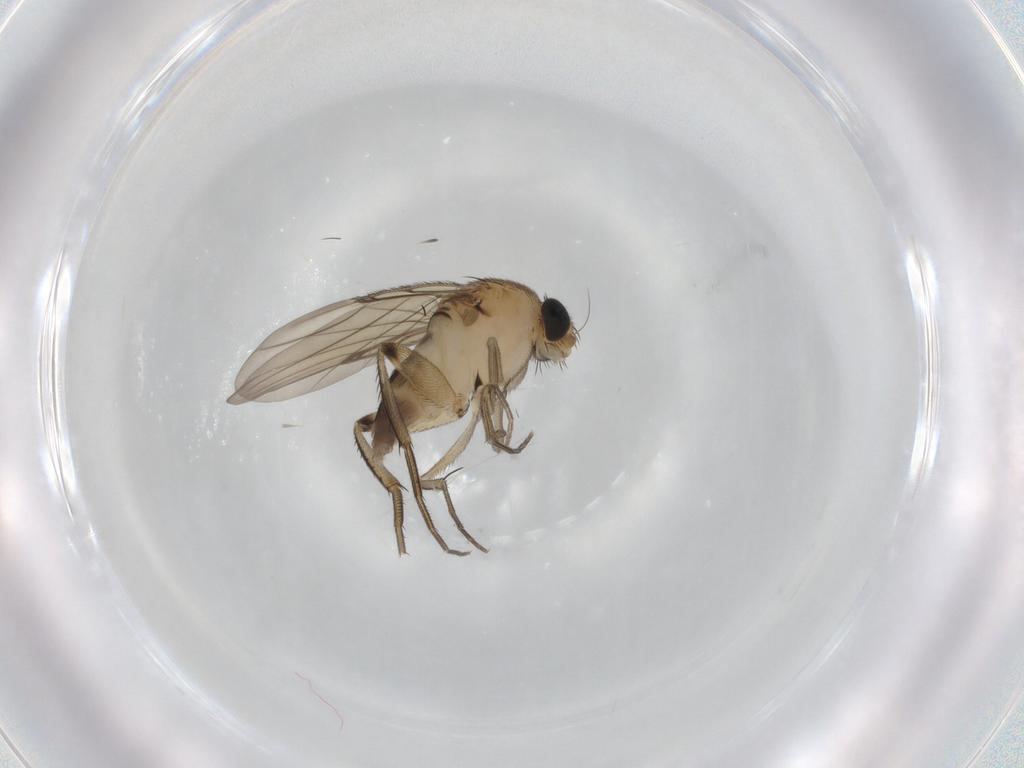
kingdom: Animalia
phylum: Arthropoda
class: Insecta
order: Diptera
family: Phoridae
